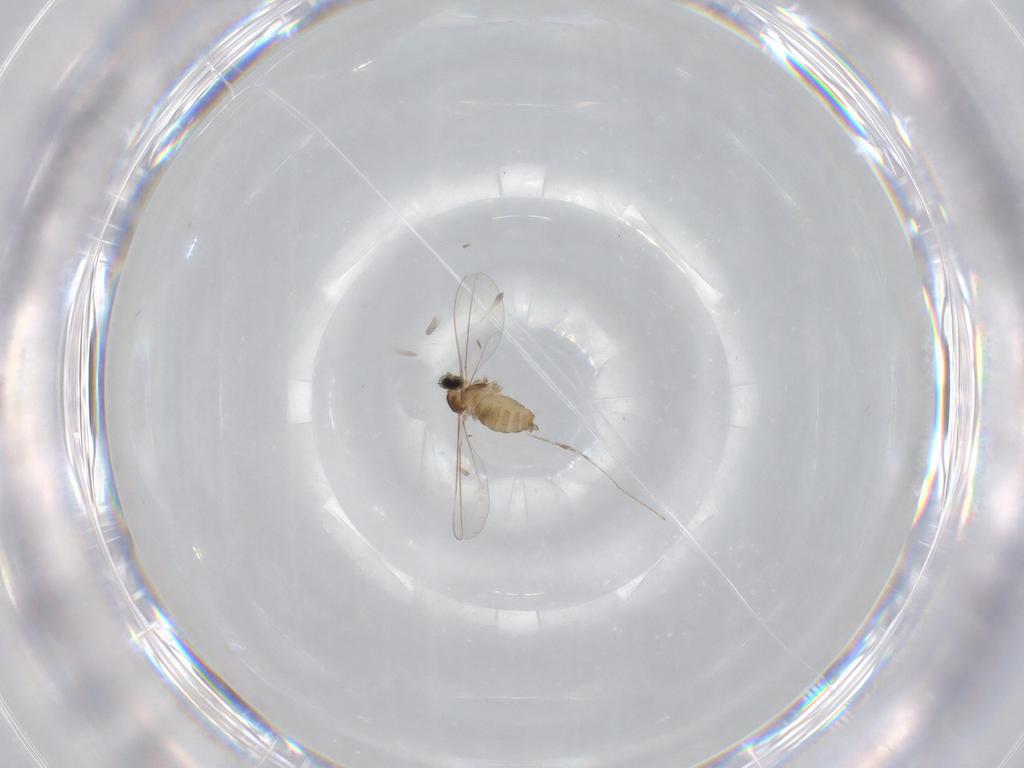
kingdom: Animalia
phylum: Arthropoda
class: Insecta
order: Diptera
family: Cecidomyiidae
